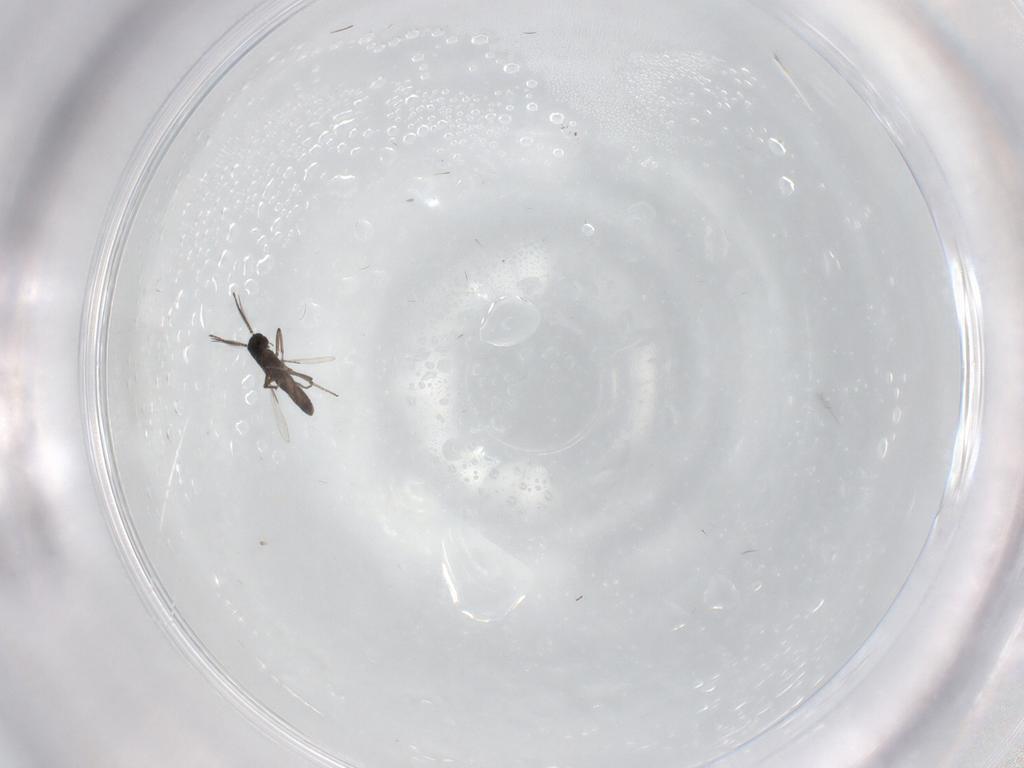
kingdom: Animalia
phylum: Arthropoda
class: Insecta
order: Diptera
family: Ceratopogonidae
